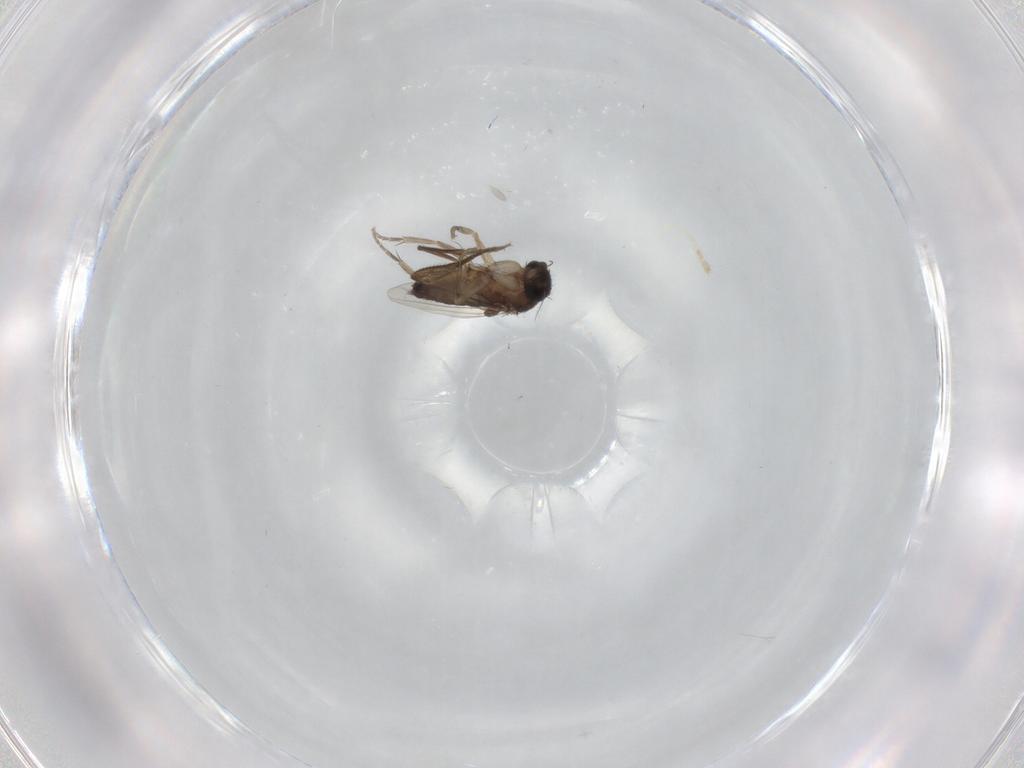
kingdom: Animalia
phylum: Arthropoda
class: Insecta
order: Diptera
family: Phoridae
